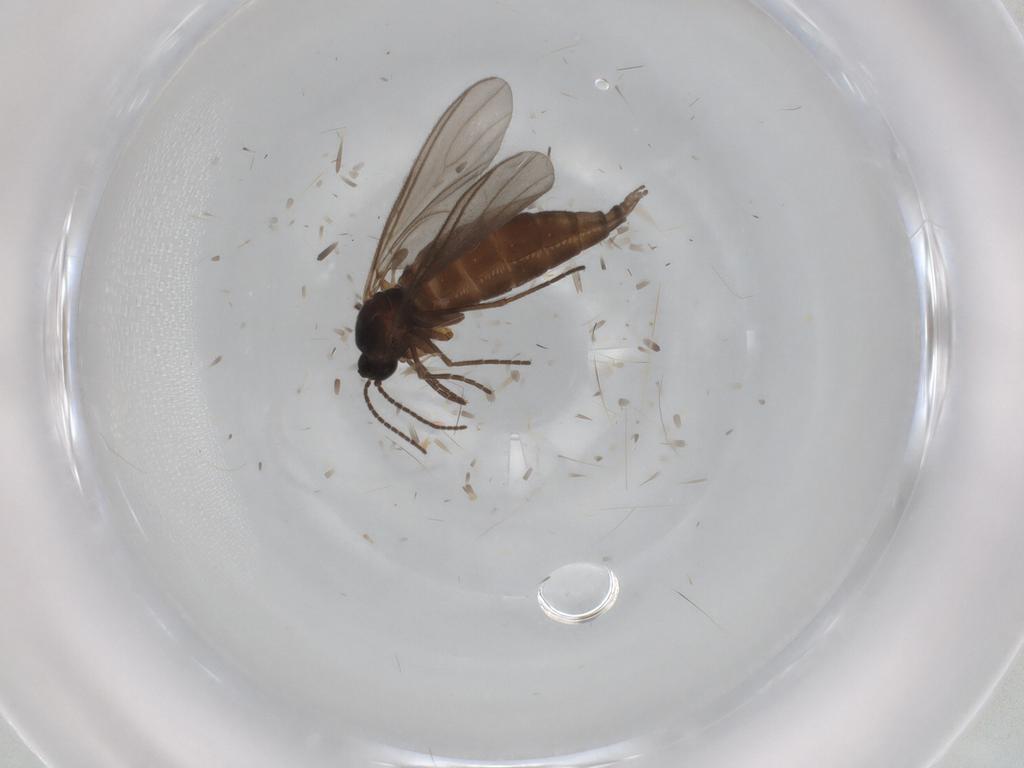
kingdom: Animalia
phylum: Arthropoda
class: Insecta
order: Diptera
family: Sciaridae
